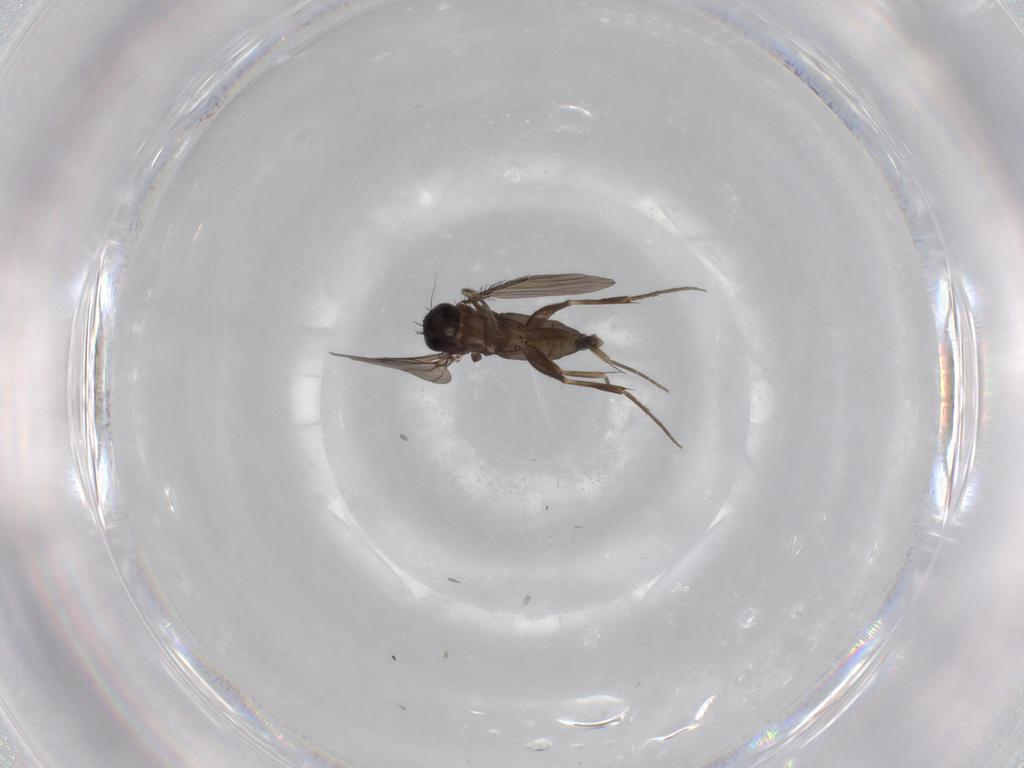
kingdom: Animalia
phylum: Arthropoda
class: Insecta
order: Diptera
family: Phoridae
